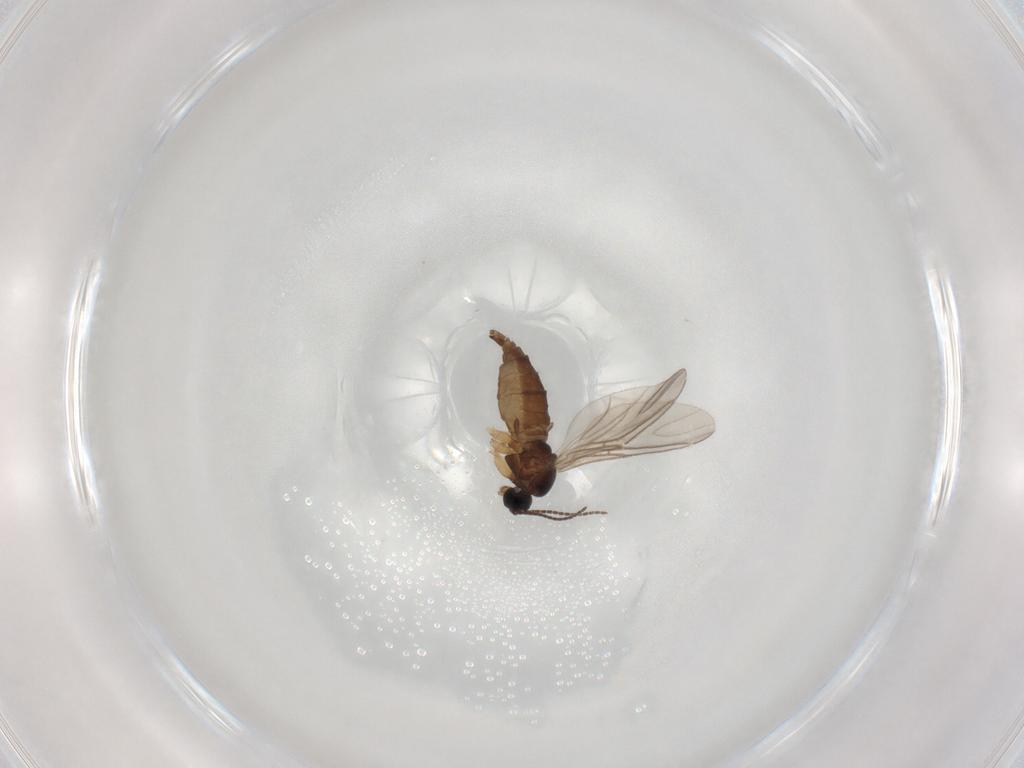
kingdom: Animalia
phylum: Arthropoda
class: Insecta
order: Diptera
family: Sciaridae
